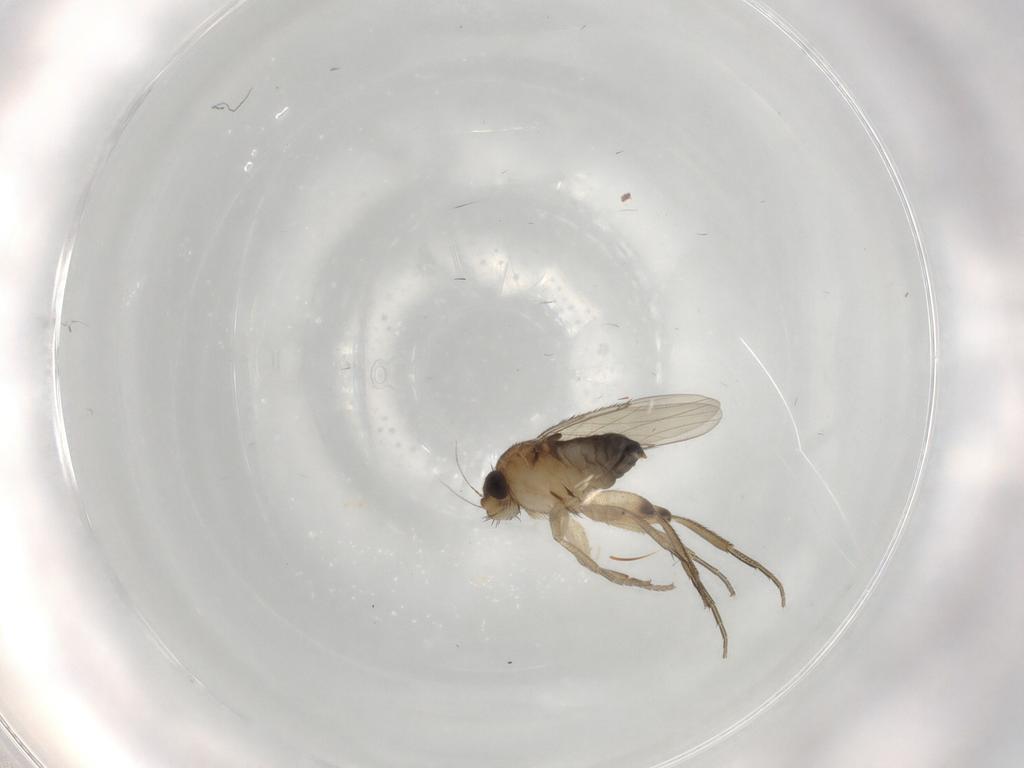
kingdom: Animalia
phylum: Arthropoda
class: Insecta
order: Diptera
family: Phoridae
